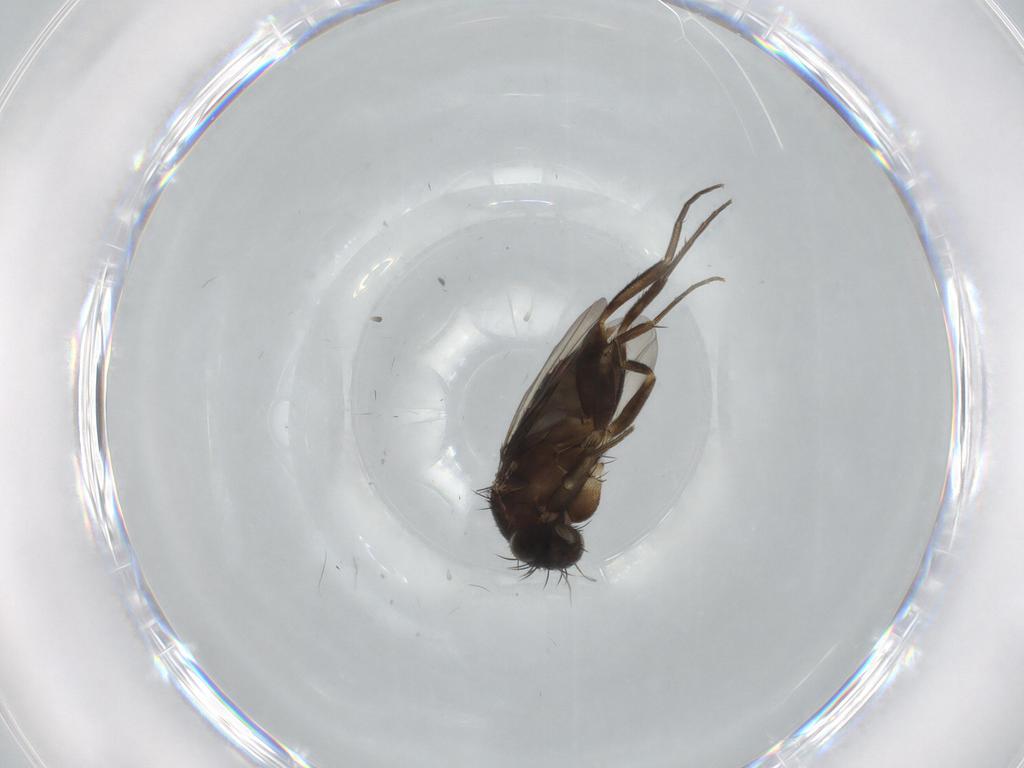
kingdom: Animalia
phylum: Arthropoda
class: Insecta
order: Diptera
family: Phoridae
